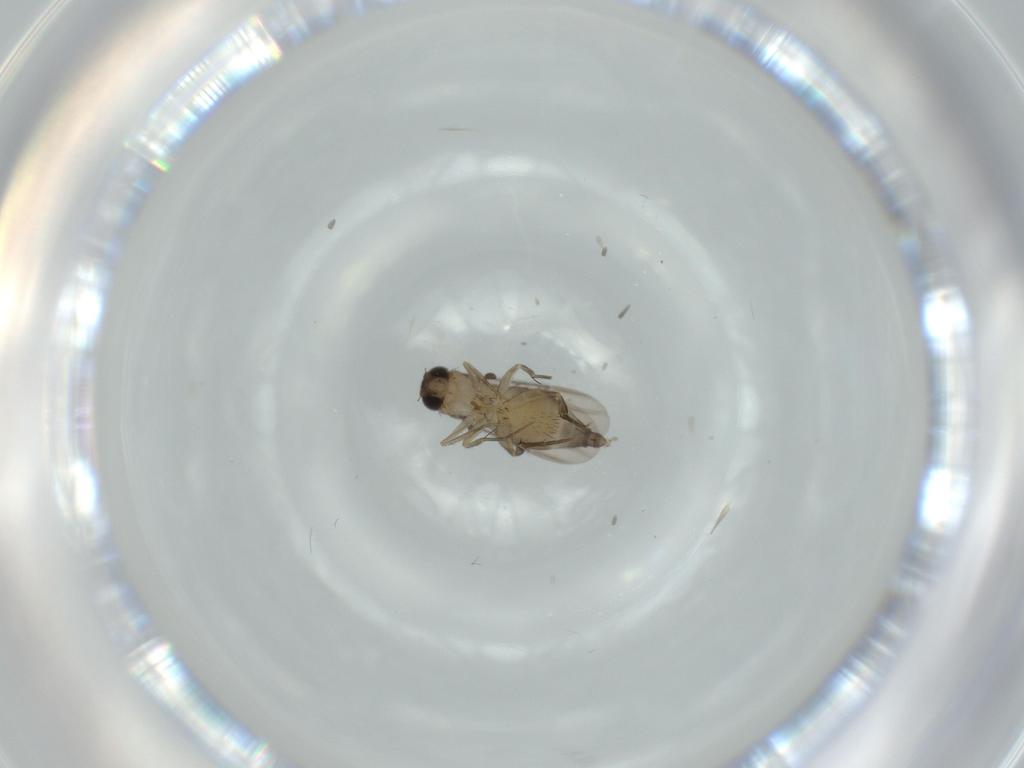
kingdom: Animalia
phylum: Arthropoda
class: Insecta
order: Diptera
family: Phoridae
